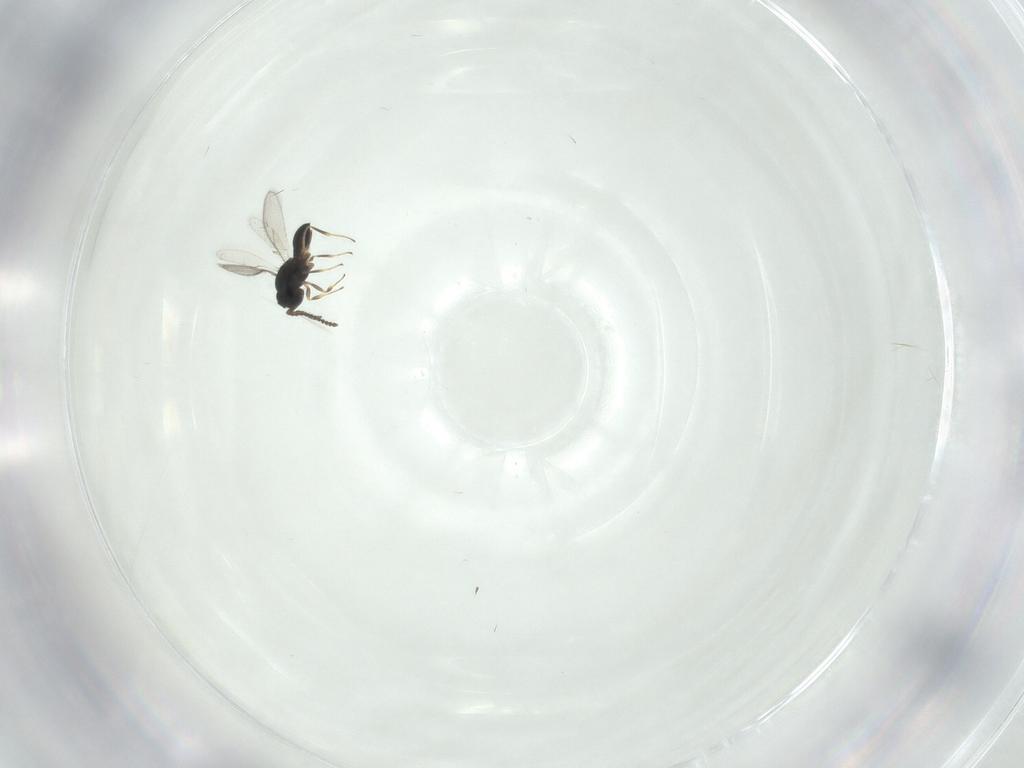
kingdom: Animalia
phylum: Arthropoda
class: Insecta
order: Hymenoptera
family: Scelionidae
